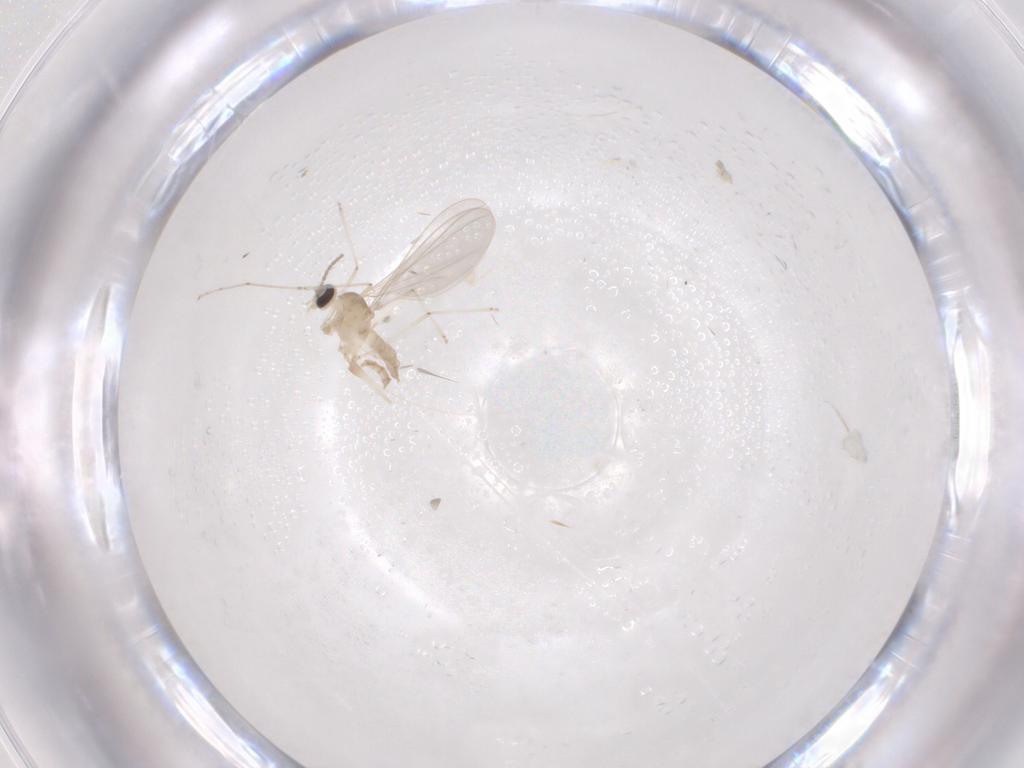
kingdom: Animalia
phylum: Arthropoda
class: Insecta
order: Diptera
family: Cecidomyiidae
